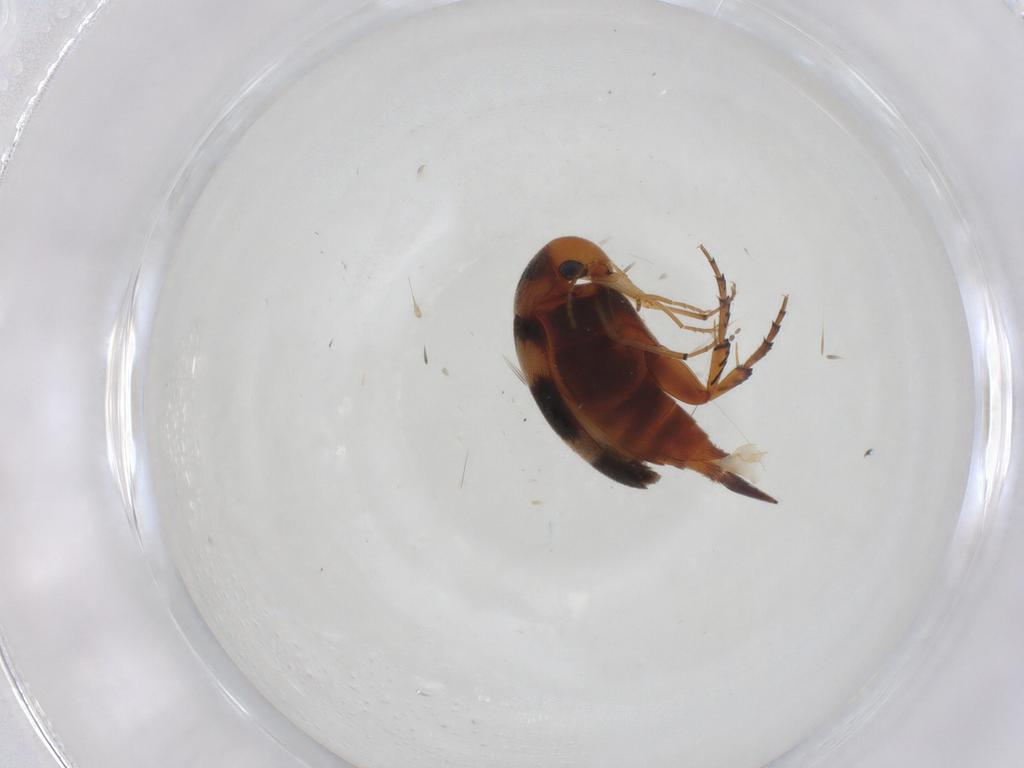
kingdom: Animalia
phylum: Arthropoda
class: Insecta
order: Coleoptera
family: Mordellidae
